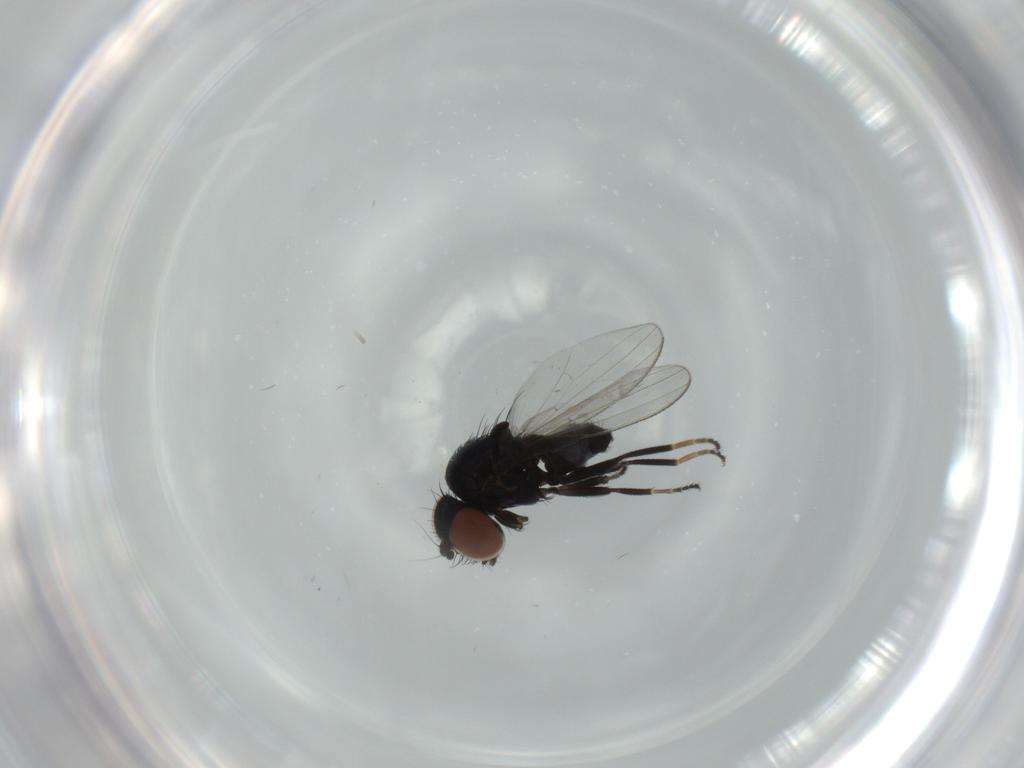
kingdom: Animalia
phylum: Arthropoda
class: Insecta
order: Diptera
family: Milichiidae
